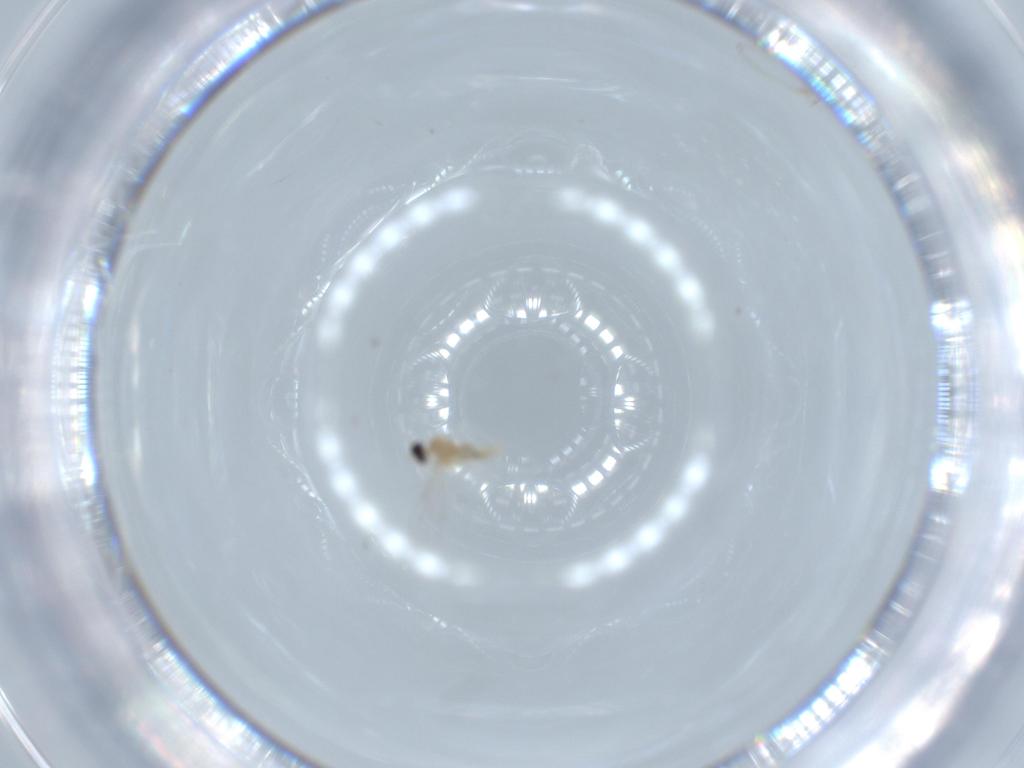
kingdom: Animalia
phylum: Arthropoda
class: Insecta
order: Diptera
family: Cecidomyiidae
